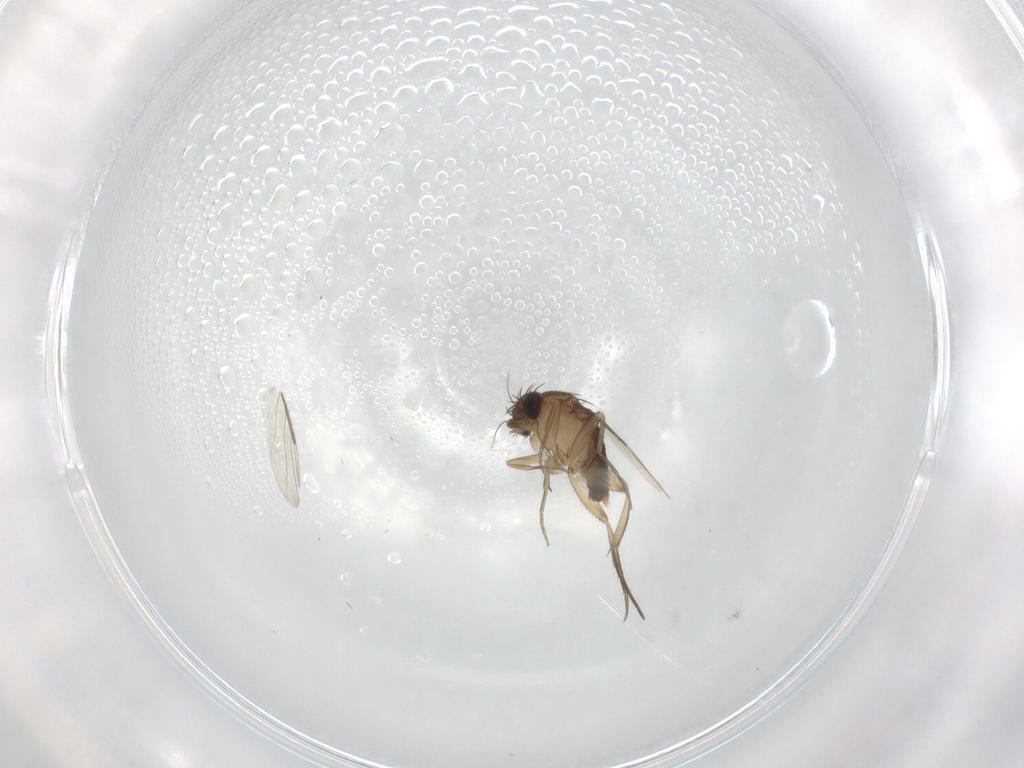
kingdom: Animalia
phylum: Arthropoda
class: Insecta
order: Diptera
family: Phoridae
